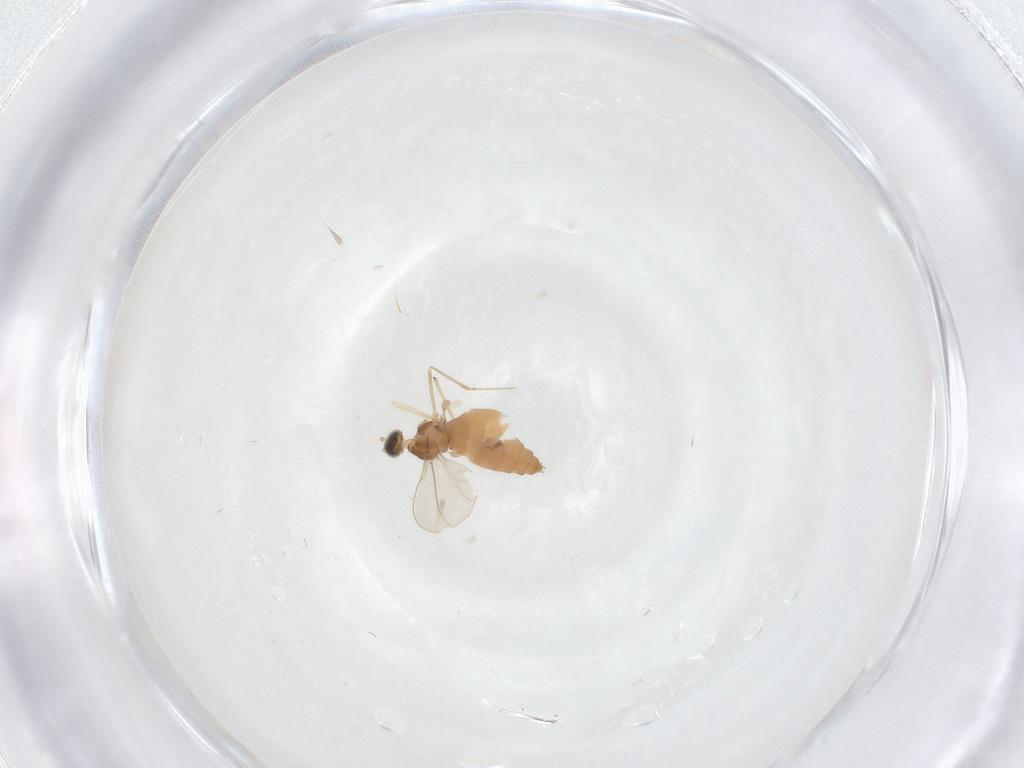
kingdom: Animalia
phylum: Arthropoda
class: Insecta
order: Diptera
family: Cecidomyiidae
